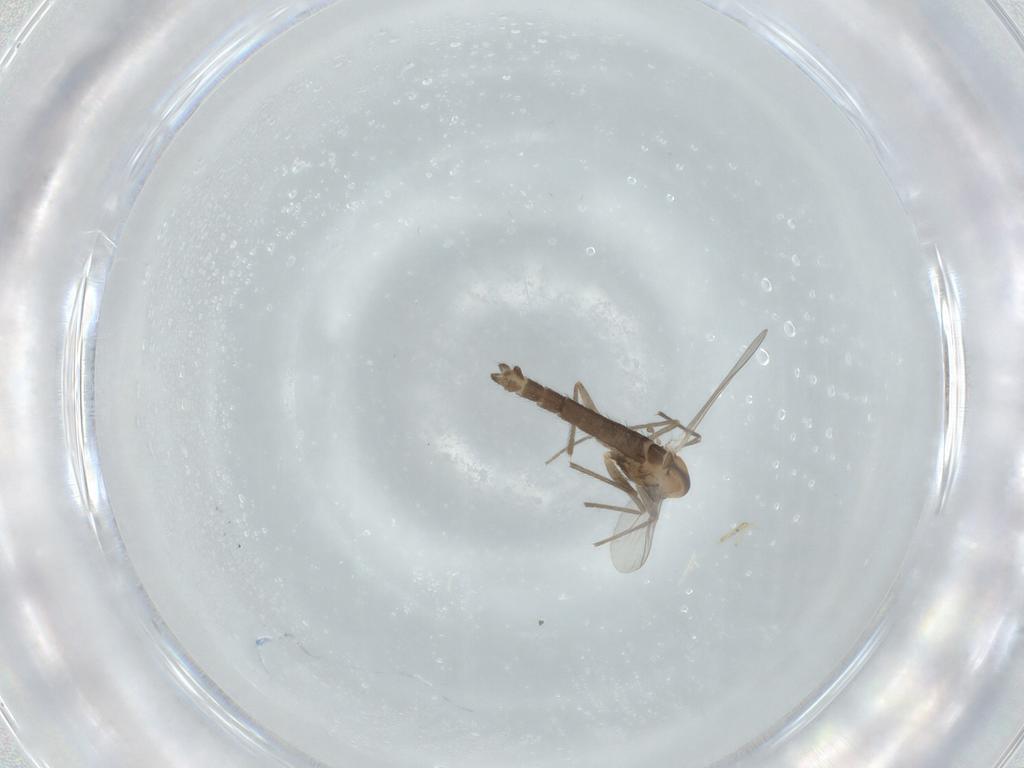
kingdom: Animalia
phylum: Arthropoda
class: Insecta
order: Diptera
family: Chironomidae
